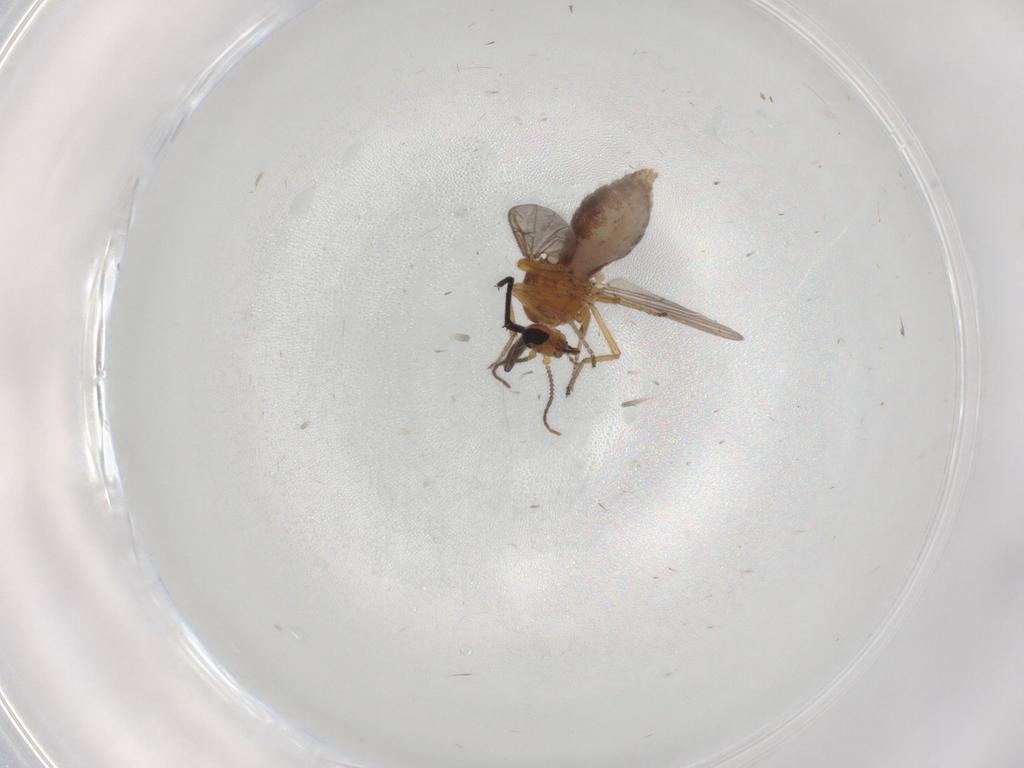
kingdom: Animalia
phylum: Arthropoda
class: Insecta
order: Diptera
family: Ceratopogonidae
